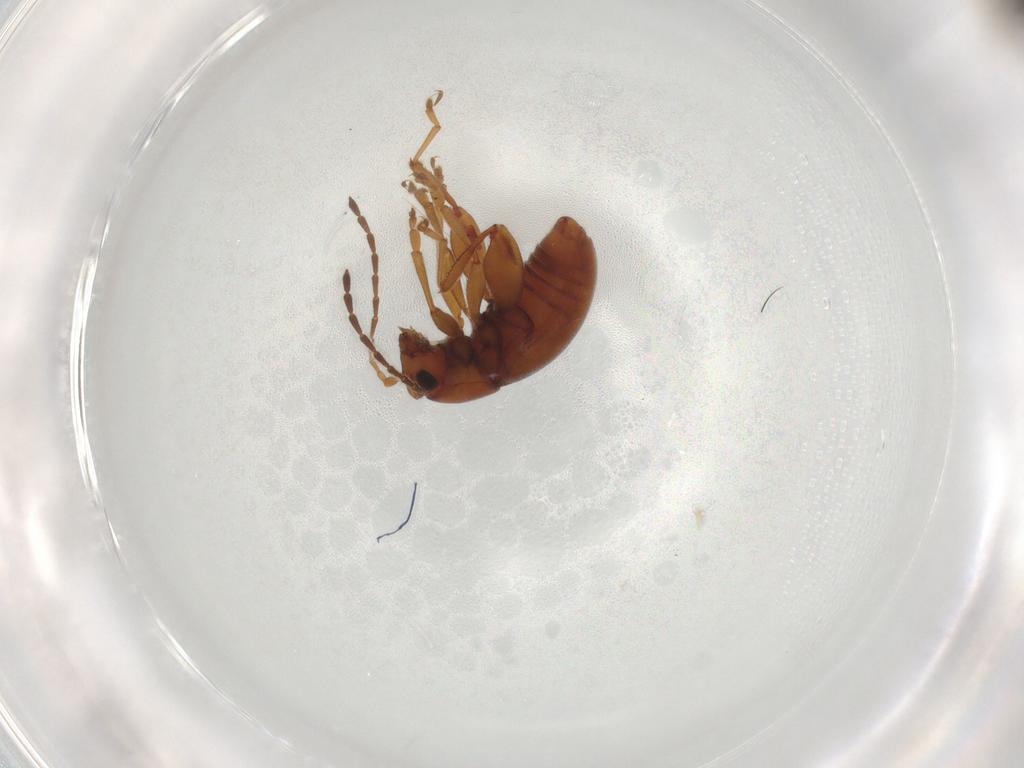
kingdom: Animalia
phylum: Arthropoda
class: Insecta
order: Coleoptera
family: Chrysomelidae
